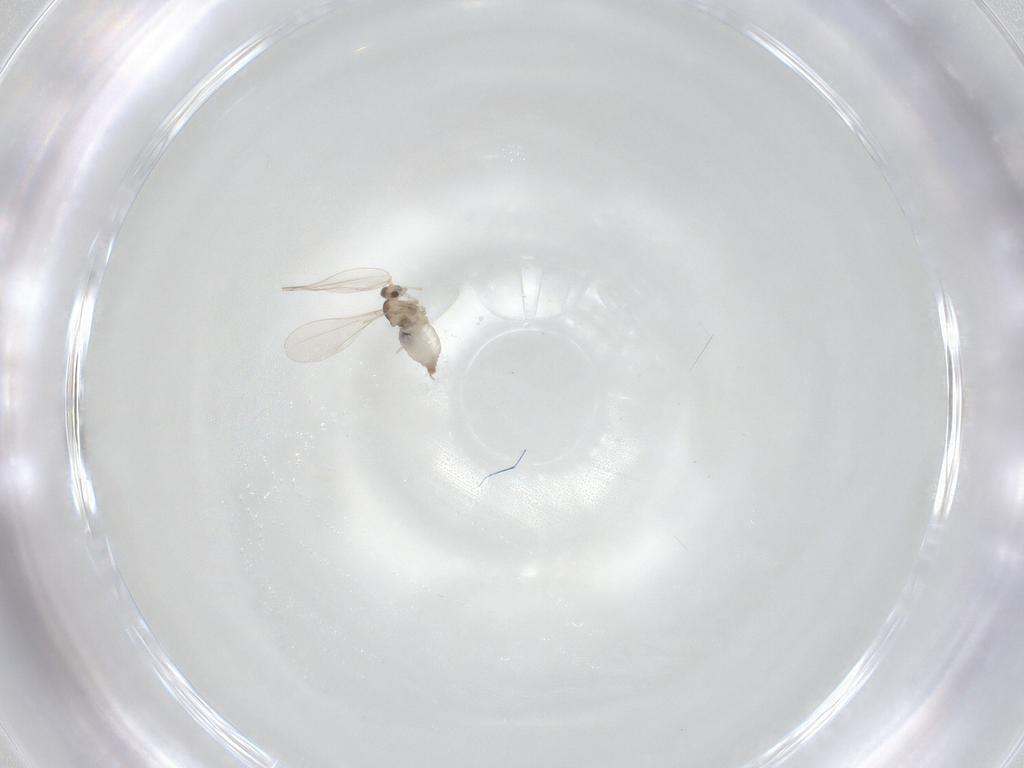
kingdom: Animalia
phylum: Arthropoda
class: Insecta
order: Diptera
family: Cecidomyiidae
